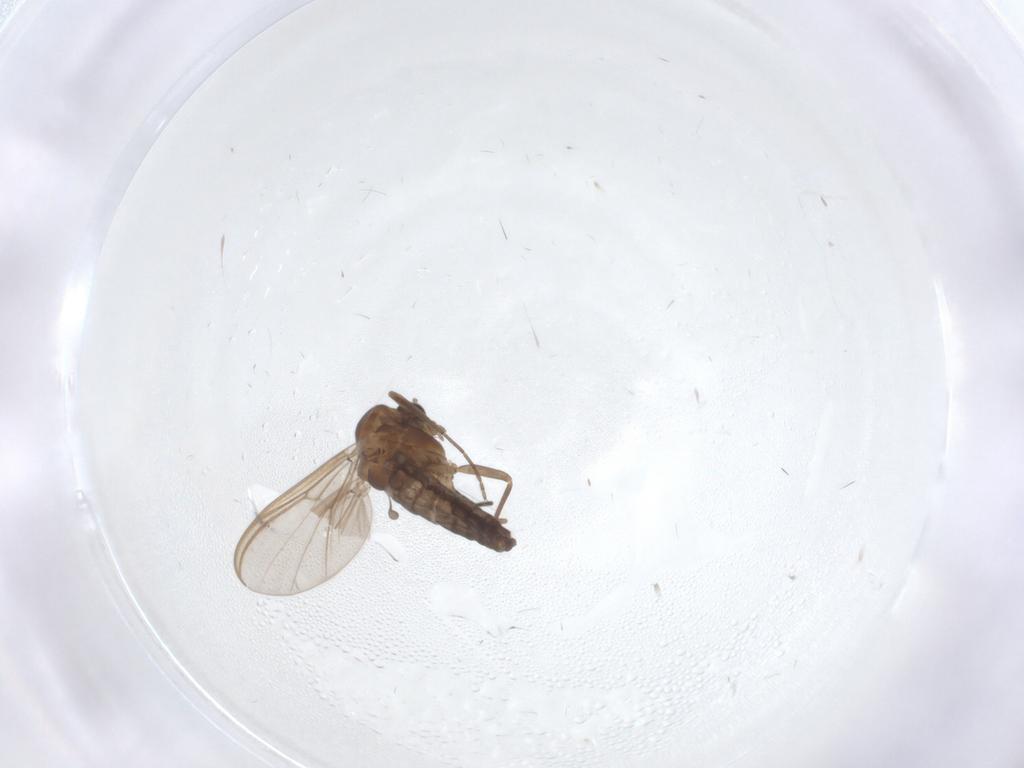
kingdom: Animalia
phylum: Arthropoda
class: Insecta
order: Diptera
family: Chironomidae
